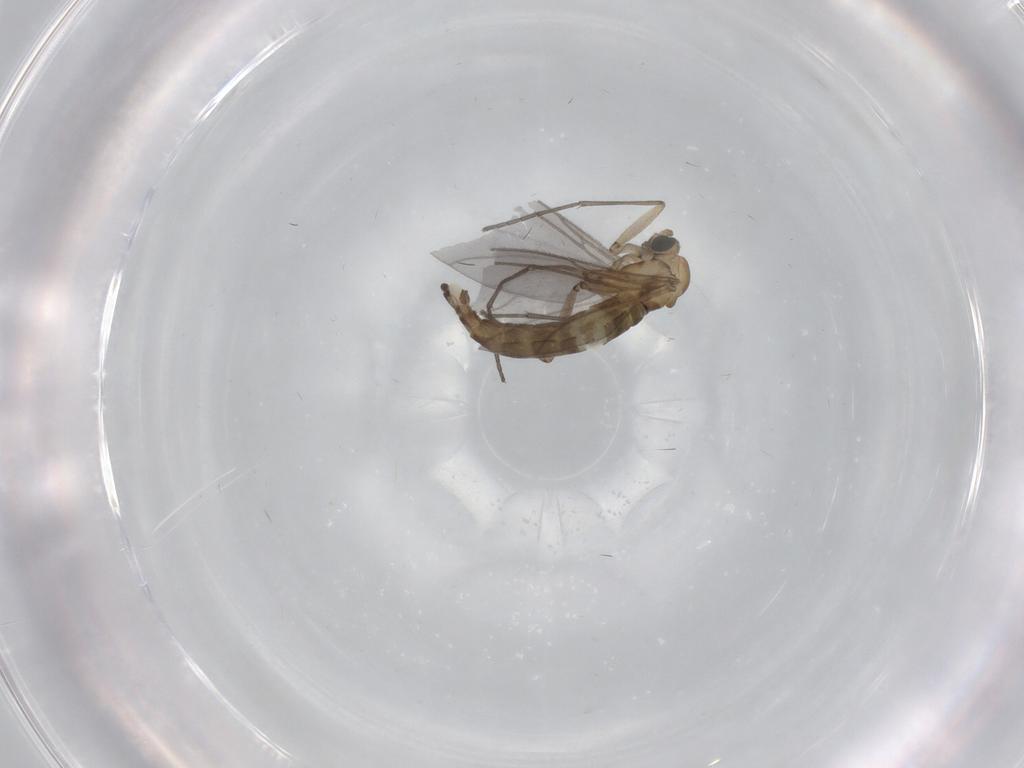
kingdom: Animalia
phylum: Arthropoda
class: Insecta
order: Diptera
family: Sciaridae
